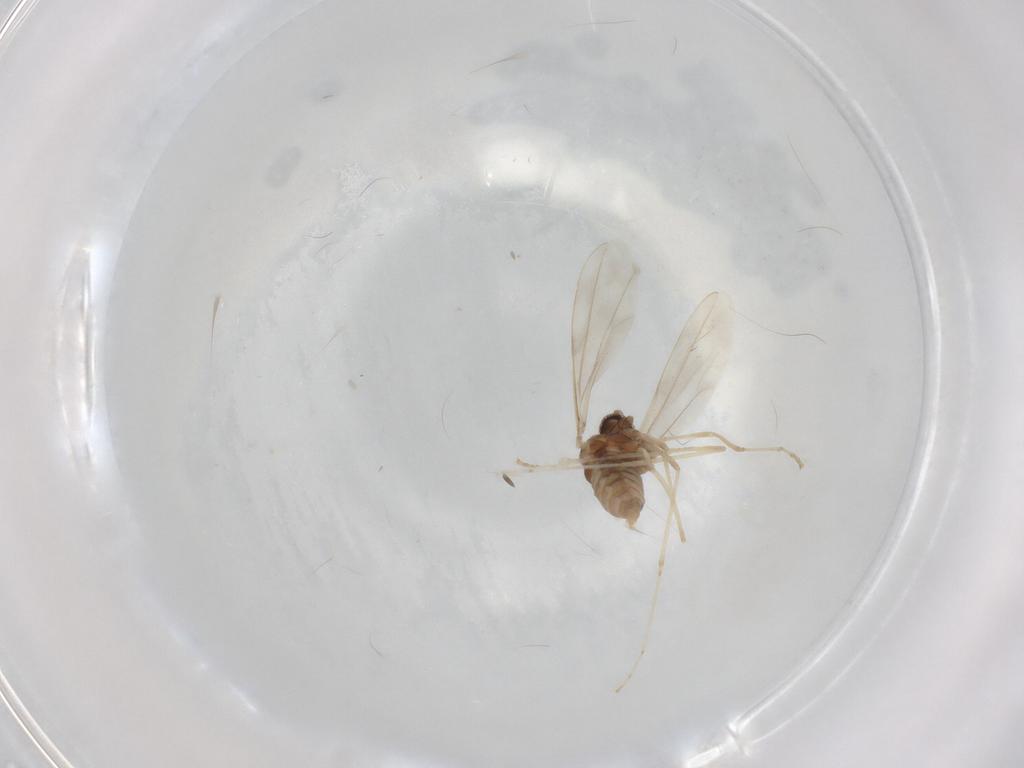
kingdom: Animalia
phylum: Arthropoda
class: Insecta
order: Diptera
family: Cecidomyiidae
